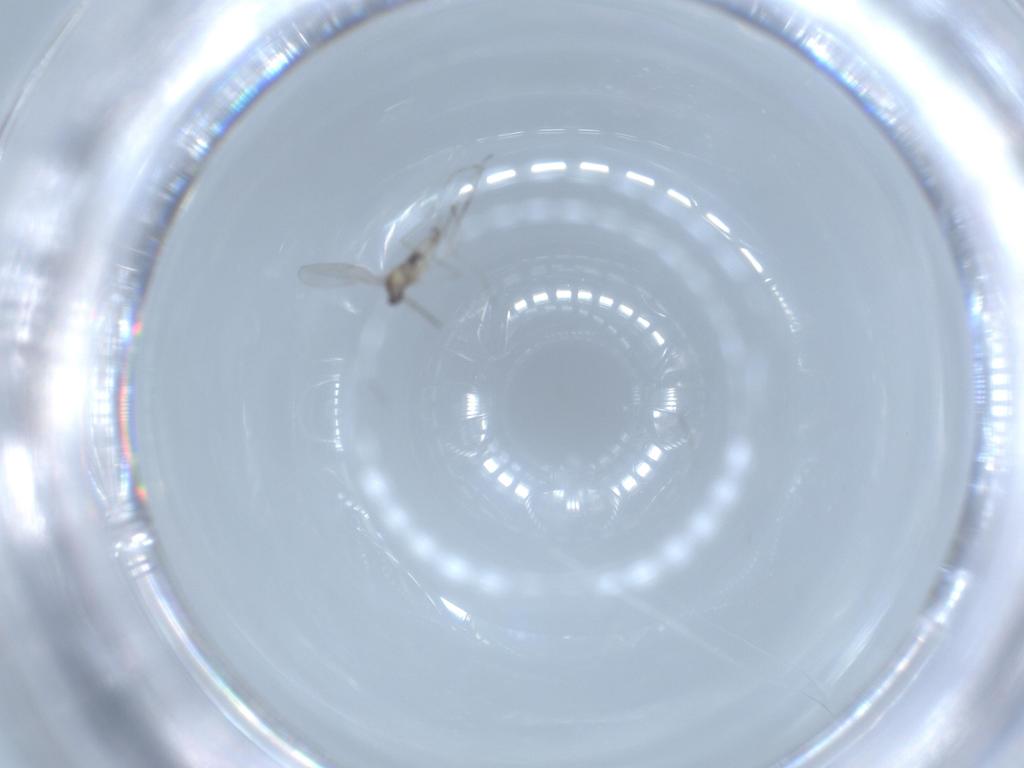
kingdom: Animalia
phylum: Arthropoda
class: Insecta
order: Diptera
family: Cecidomyiidae
